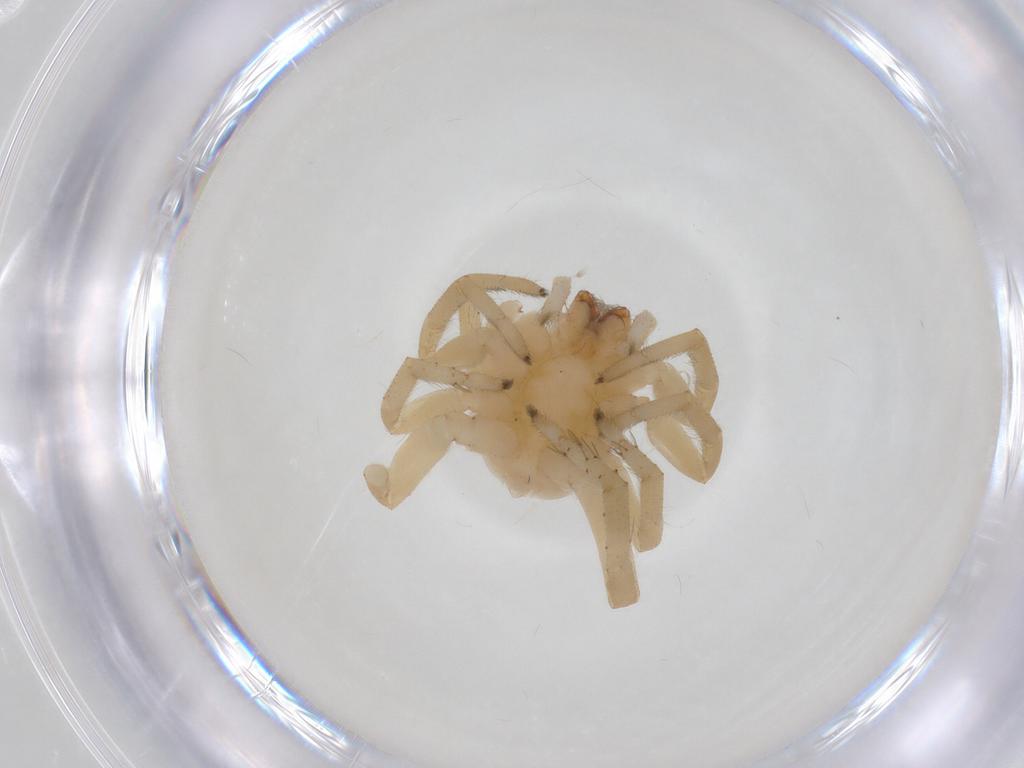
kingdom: Animalia
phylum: Arthropoda
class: Arachnida
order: Araneae
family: Clubionidae
